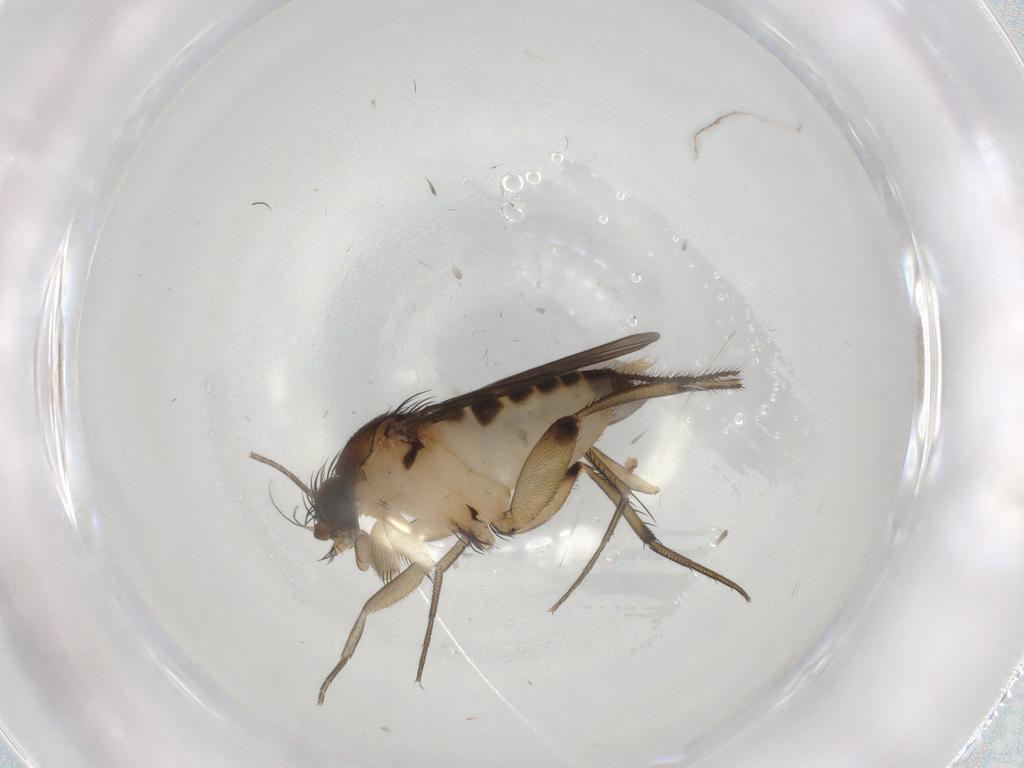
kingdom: Animalia
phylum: Arthropoda
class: Insecta
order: Diptera
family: Phoridae
